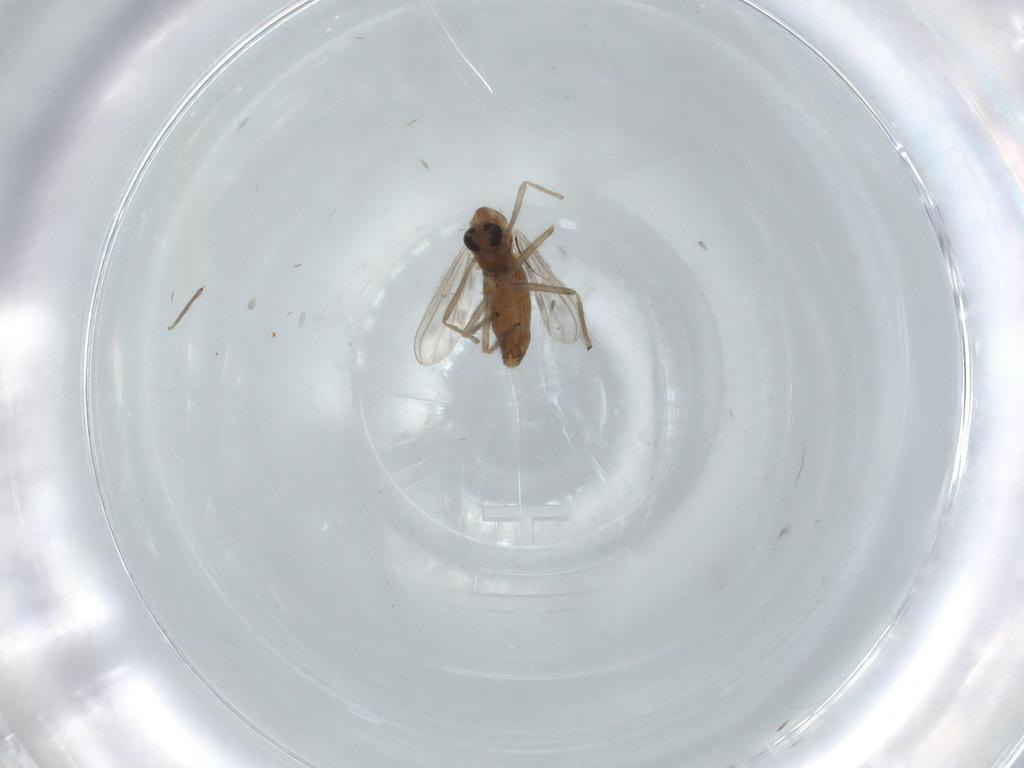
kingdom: Animalia
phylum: Arthropoda
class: Insecta
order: Diptera
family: Chironomidae
